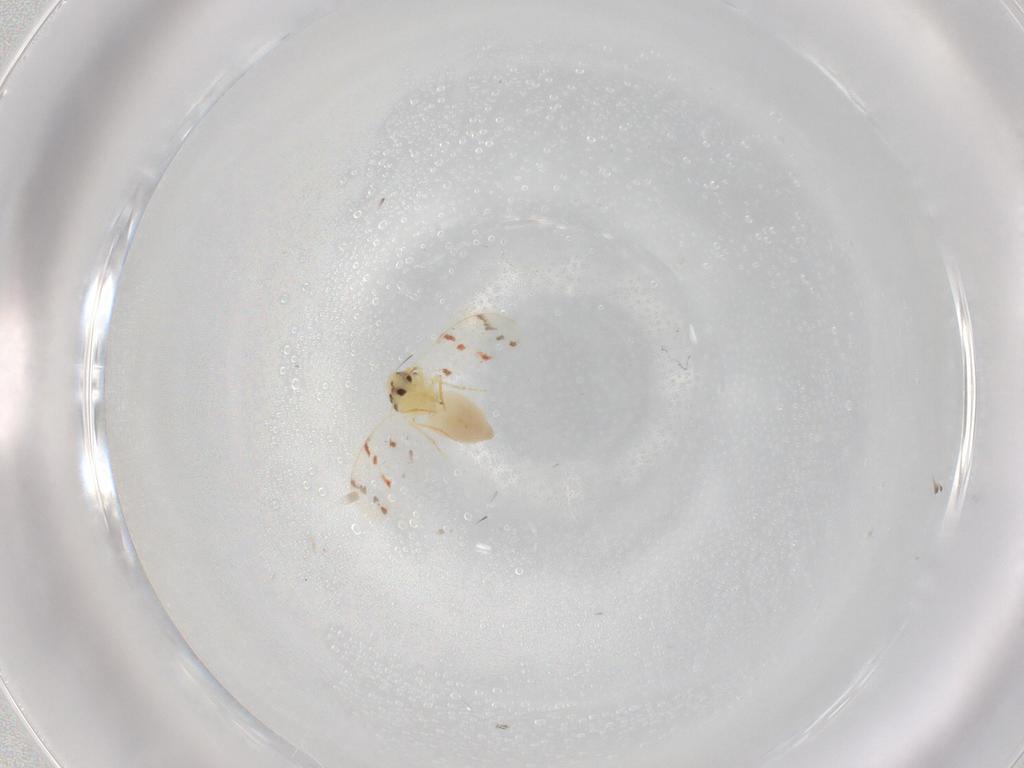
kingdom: Animalia
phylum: Arthropoda
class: Insecta
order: Hemiptera
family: Aleyrodidae
